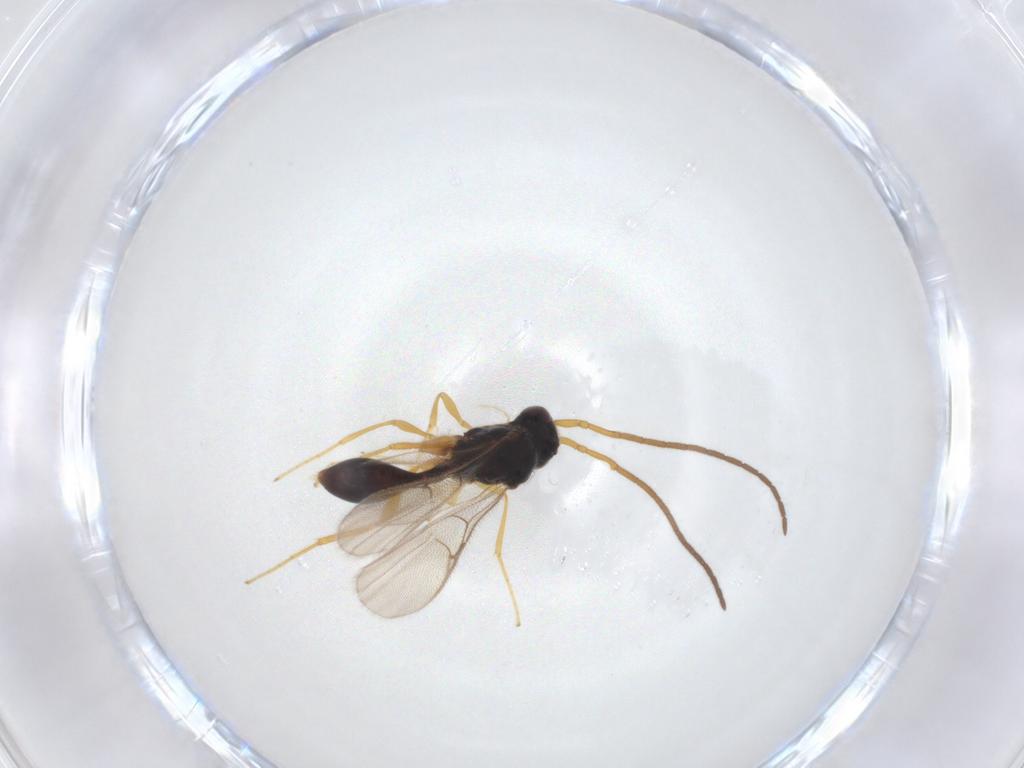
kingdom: Animalia
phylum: Arthropoda
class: Insecta
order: Hymenoptera
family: Diapriidae
